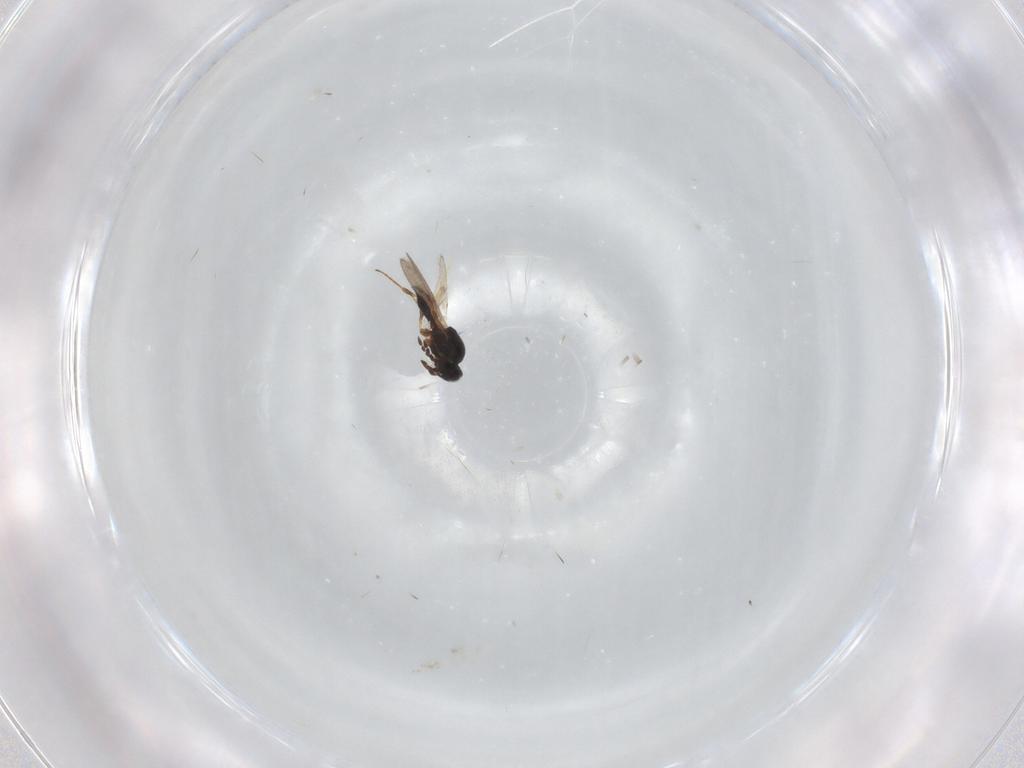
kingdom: Animalia
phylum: Arthropoda
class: Insecta
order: Hymenoptera
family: Platygastridae
